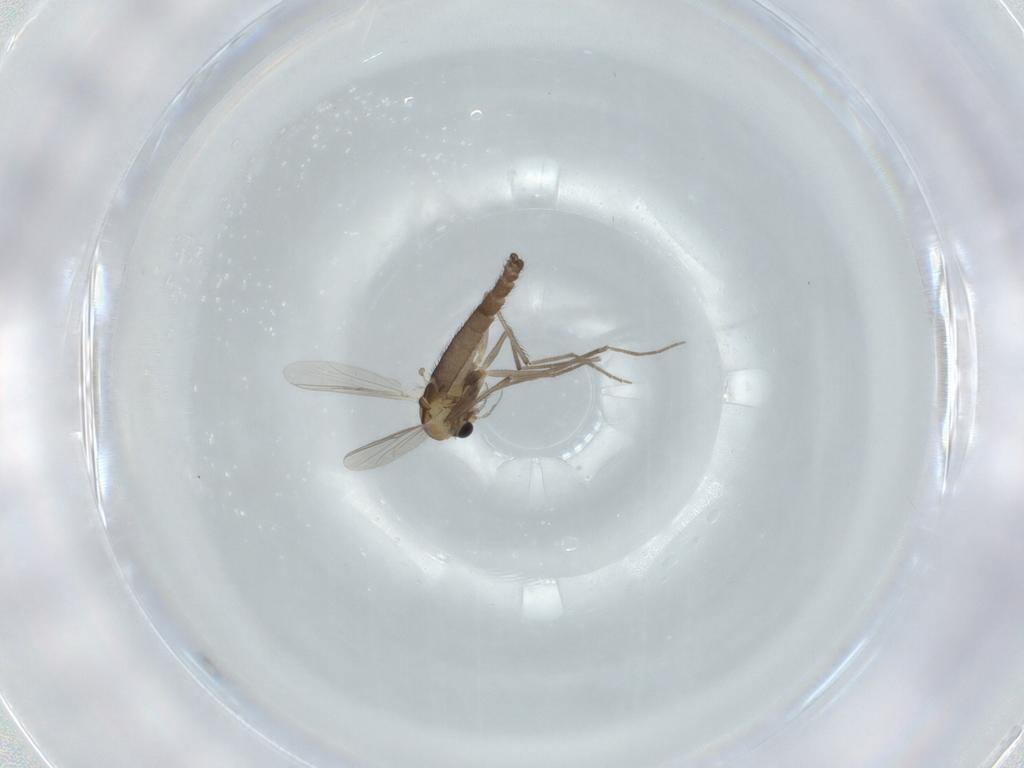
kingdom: Animalia
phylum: Arthropoda
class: Insecta
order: Diptera
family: Chironomidae
